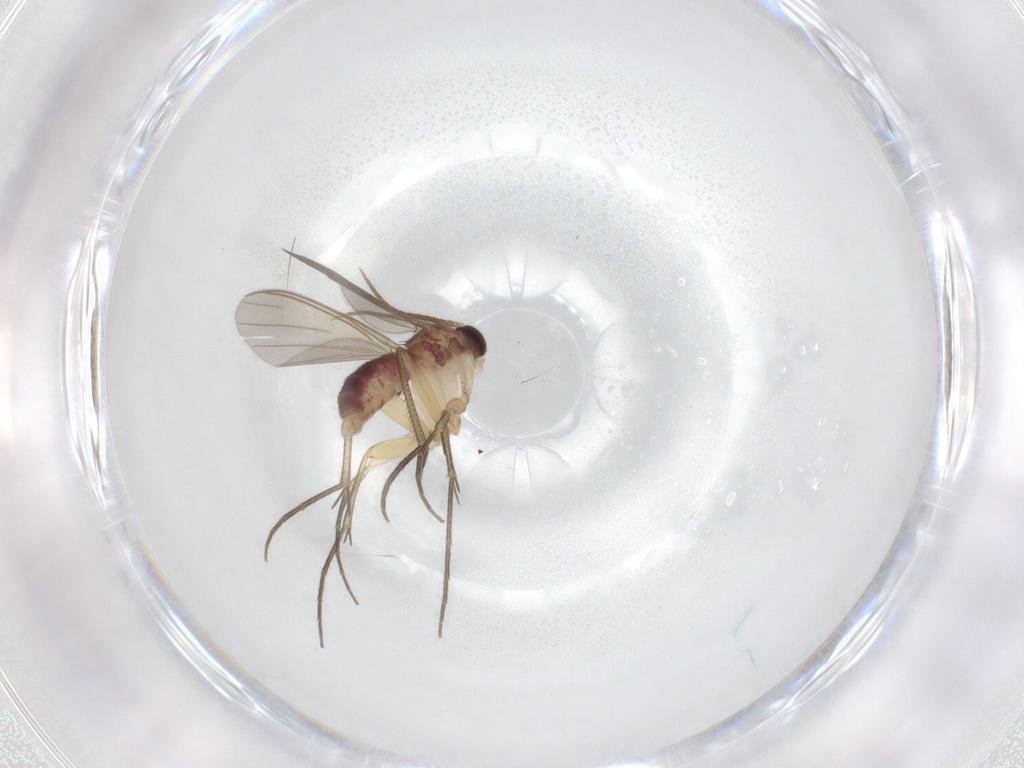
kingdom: Animalia
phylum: Arthropoda
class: Insecta
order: Diptera
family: Mycetophilidae
